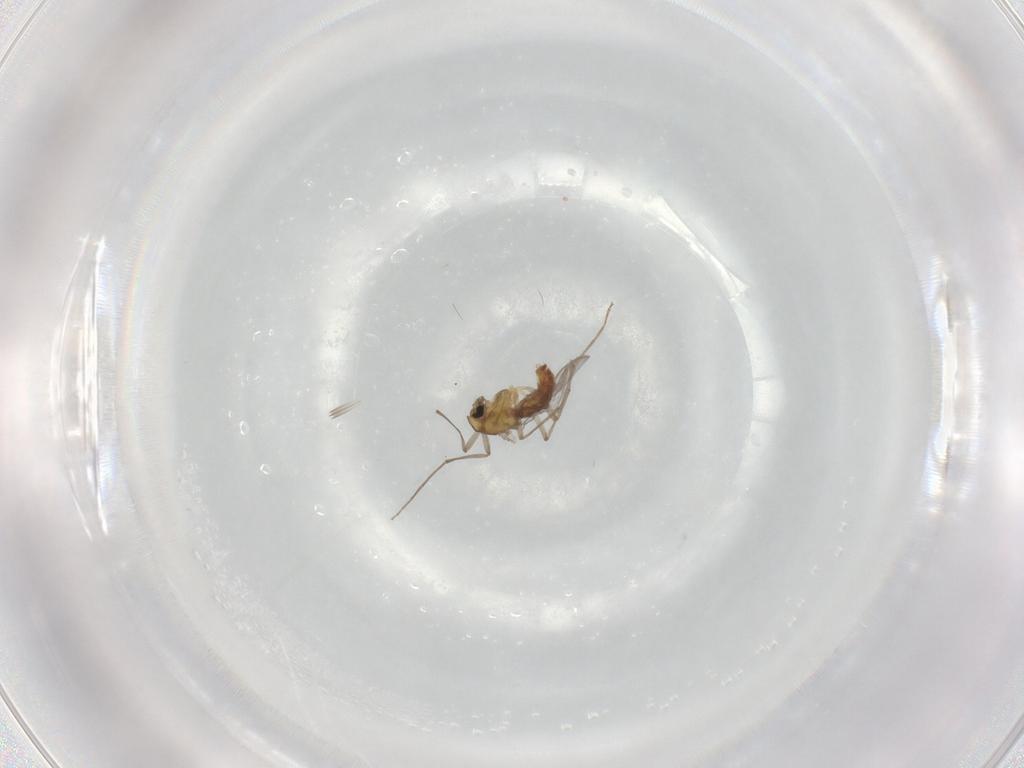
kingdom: Animalia
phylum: Arthropoda
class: Insecta
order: Diptera
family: Chironomidae
